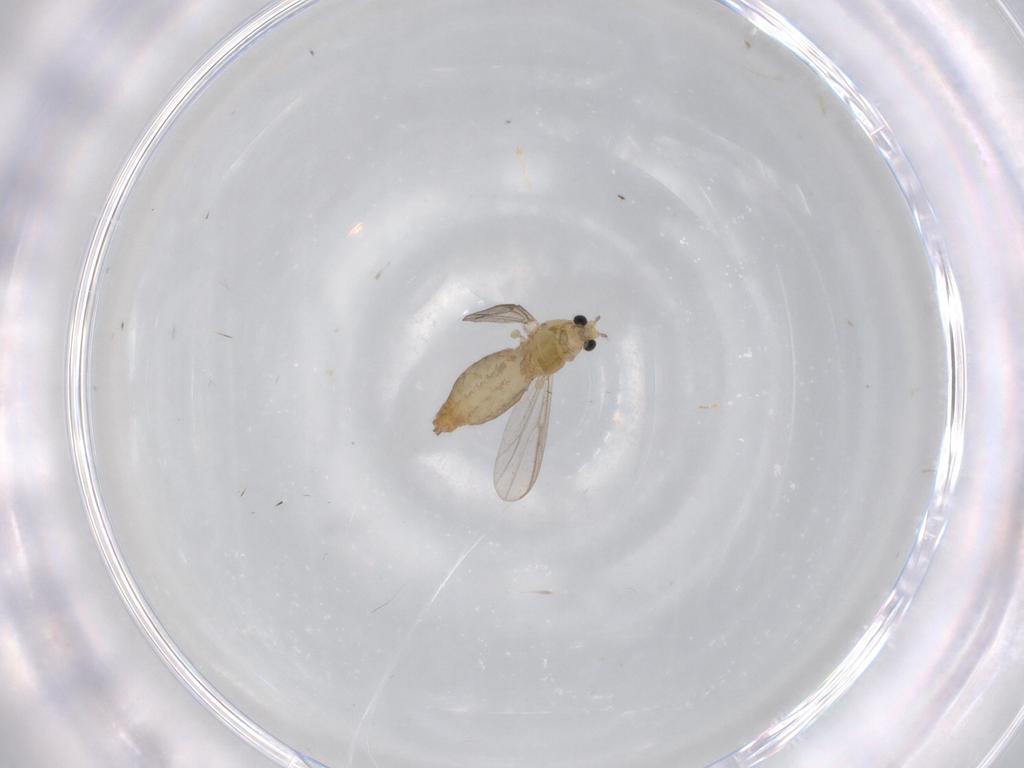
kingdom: Animalia
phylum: Arthropoda
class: Insecta
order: Diptera
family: Chironomidae
